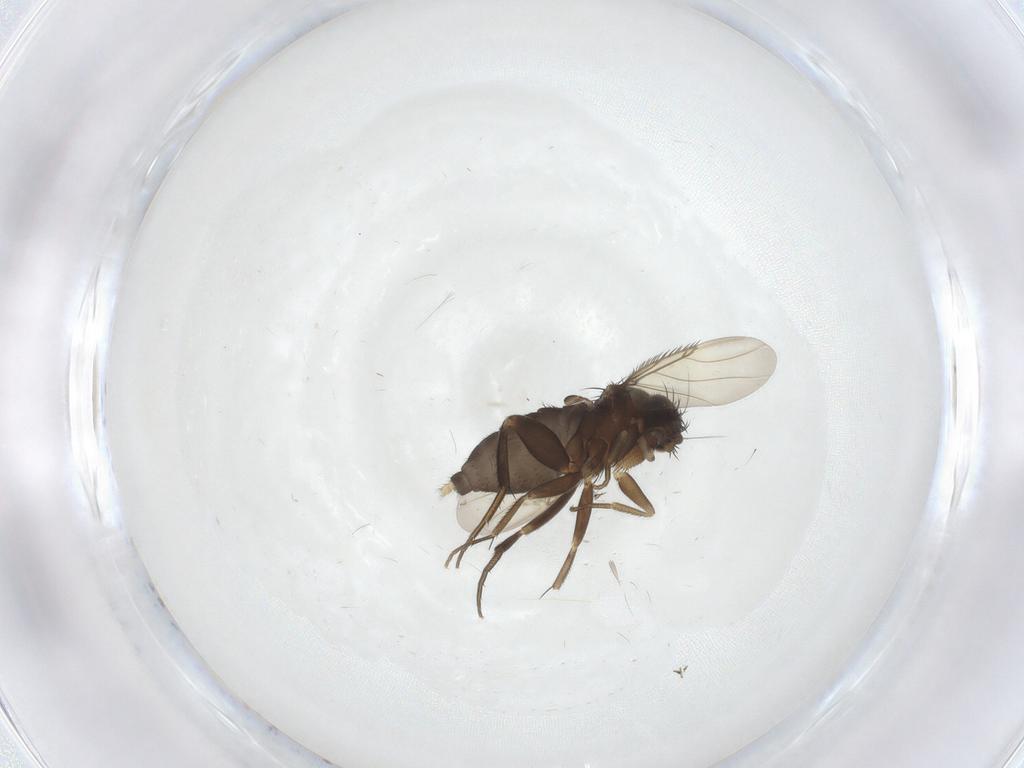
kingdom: Animalia
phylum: Arthropoda
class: Insecta
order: Diptera
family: Phoridae
